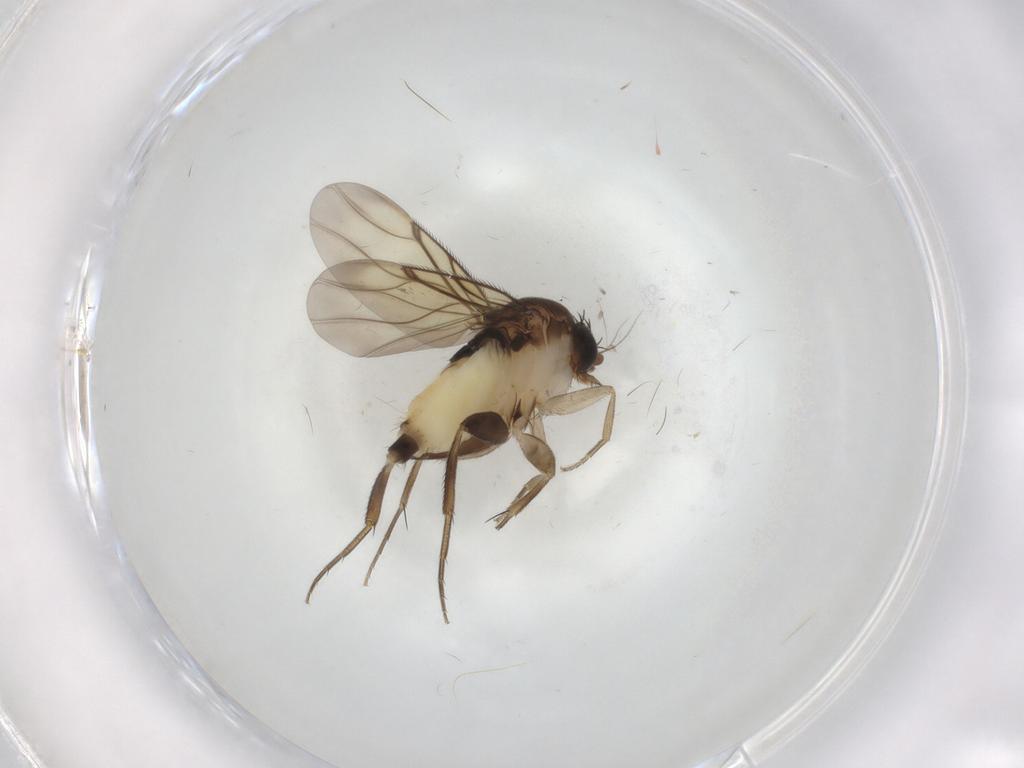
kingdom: Animalia
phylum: Arthropoda
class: Insecta
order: Diptera
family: Phoridae
